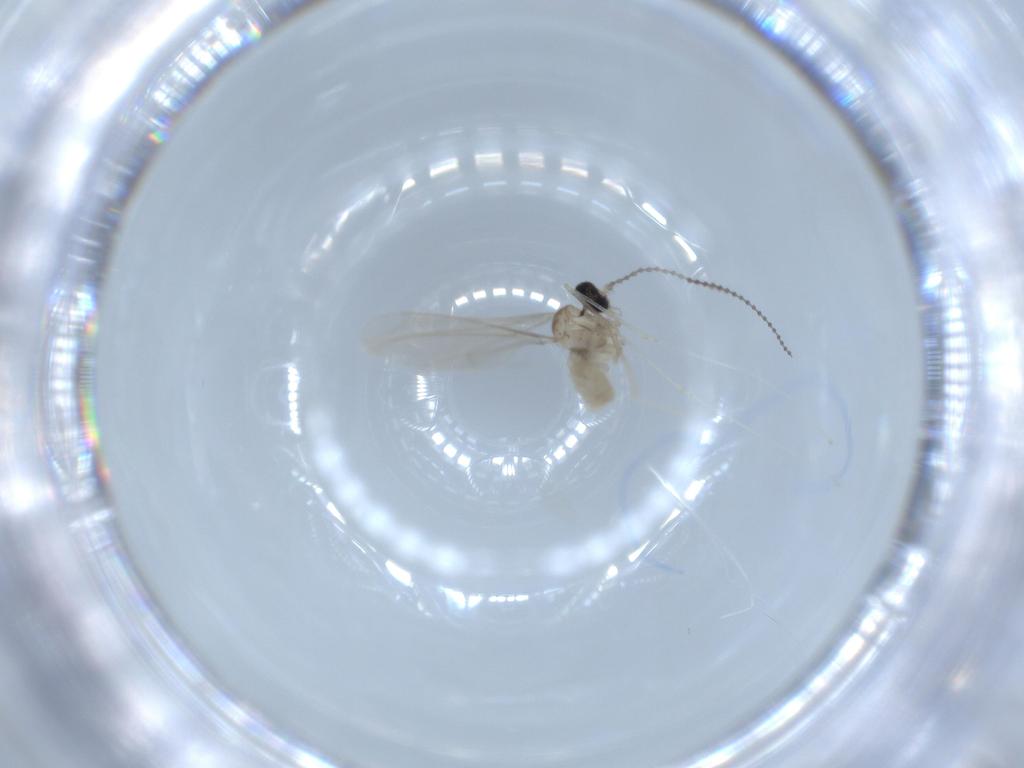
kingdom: Animalia
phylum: Arthropoda
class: Insecta
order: Diptera
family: Cecidomyiidae
